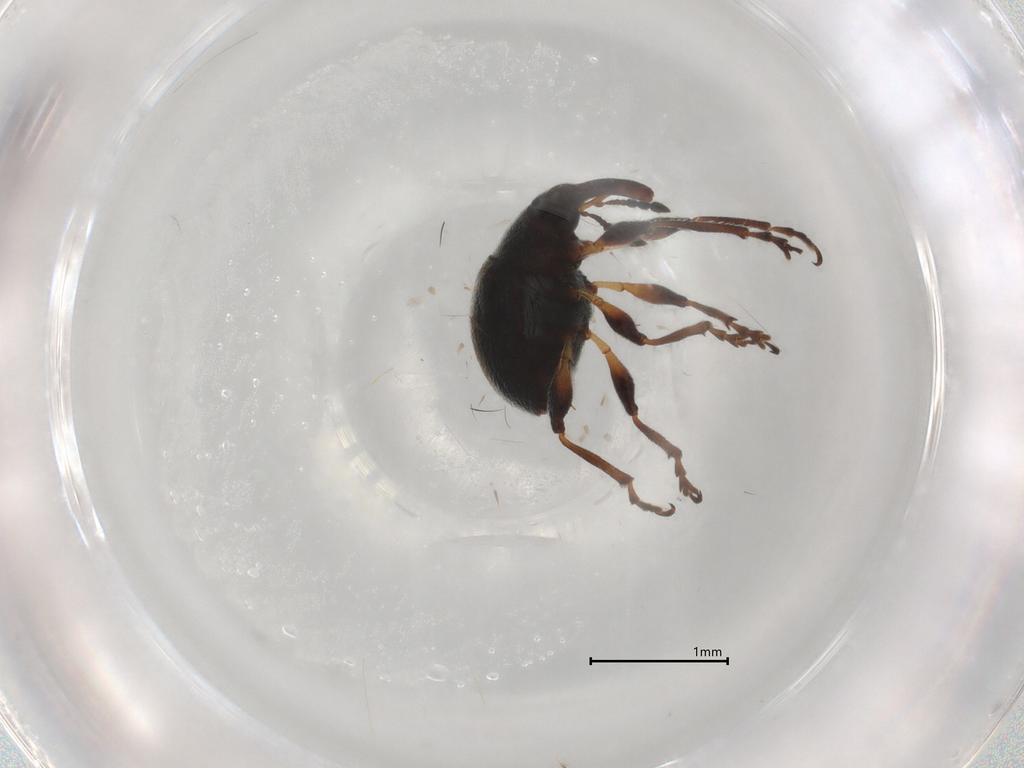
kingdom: Animalia
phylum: Arthropoda
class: Insecta
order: Coleoptera
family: Brentidae
